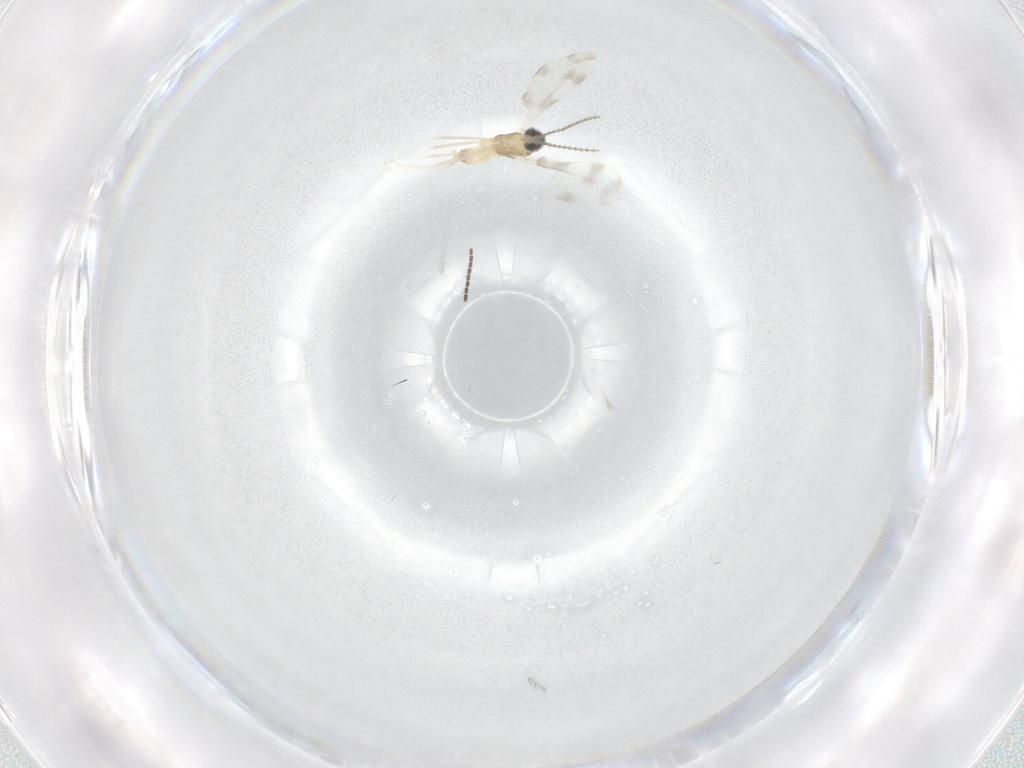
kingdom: Animalia
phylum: Arthropoda
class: Insecta
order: Diptera
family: Cecidomyiidae
